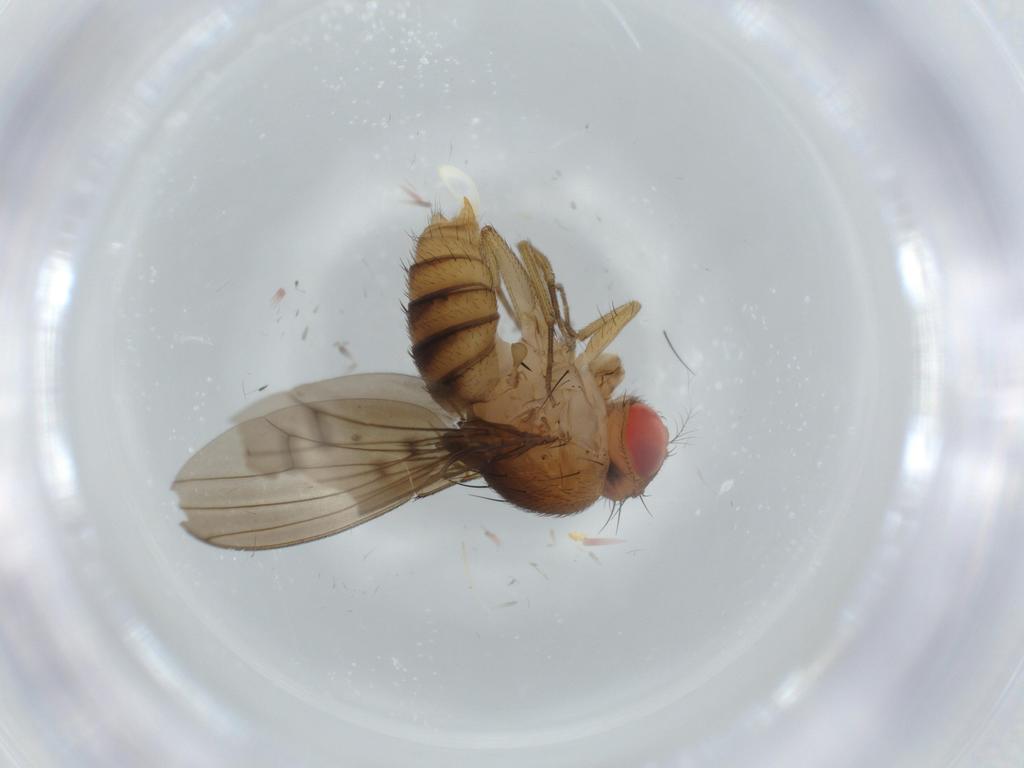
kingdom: Animalia
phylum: Arthropoda
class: Insecta
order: Diptera
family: Drosophilidae
